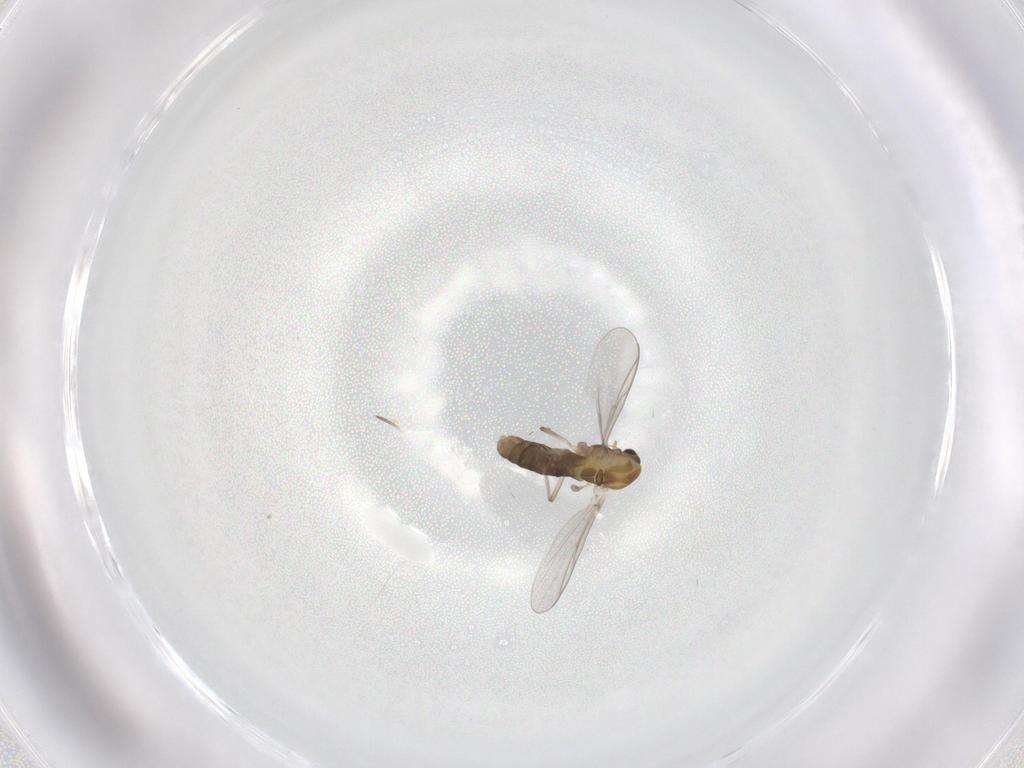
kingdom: Animalia
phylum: Arthropoda
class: Insecta
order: Diptera
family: Chironomidae
